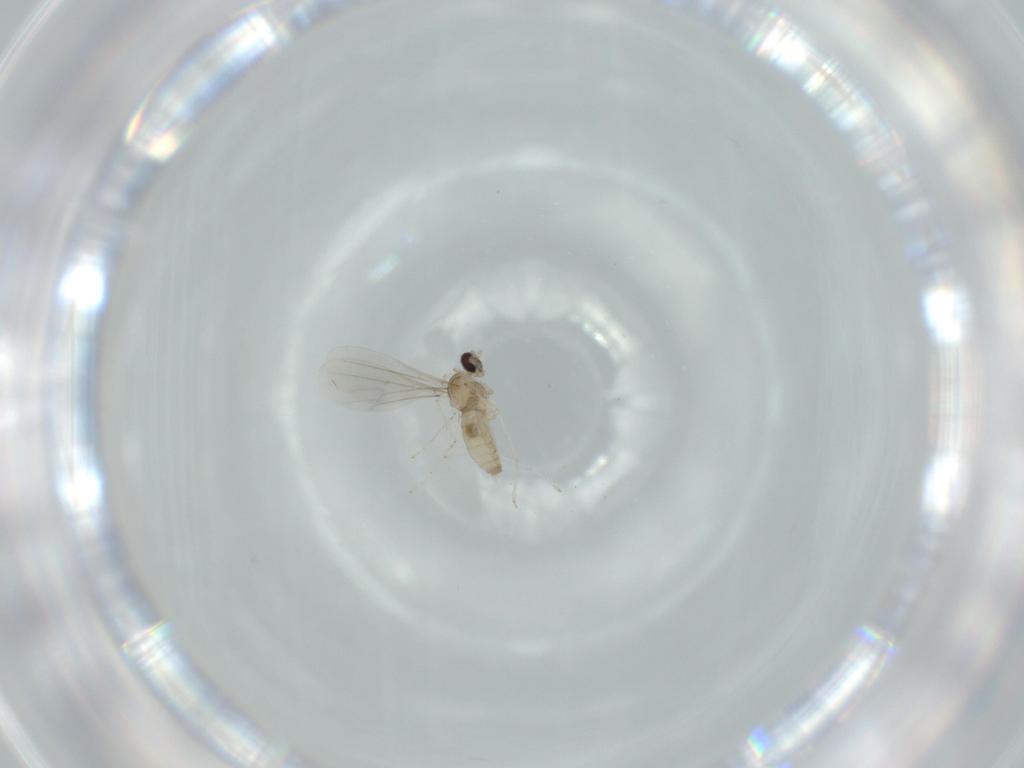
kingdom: Animalia
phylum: Arthropoda
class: Insecta
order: Diptera
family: Cecidomyiidae
